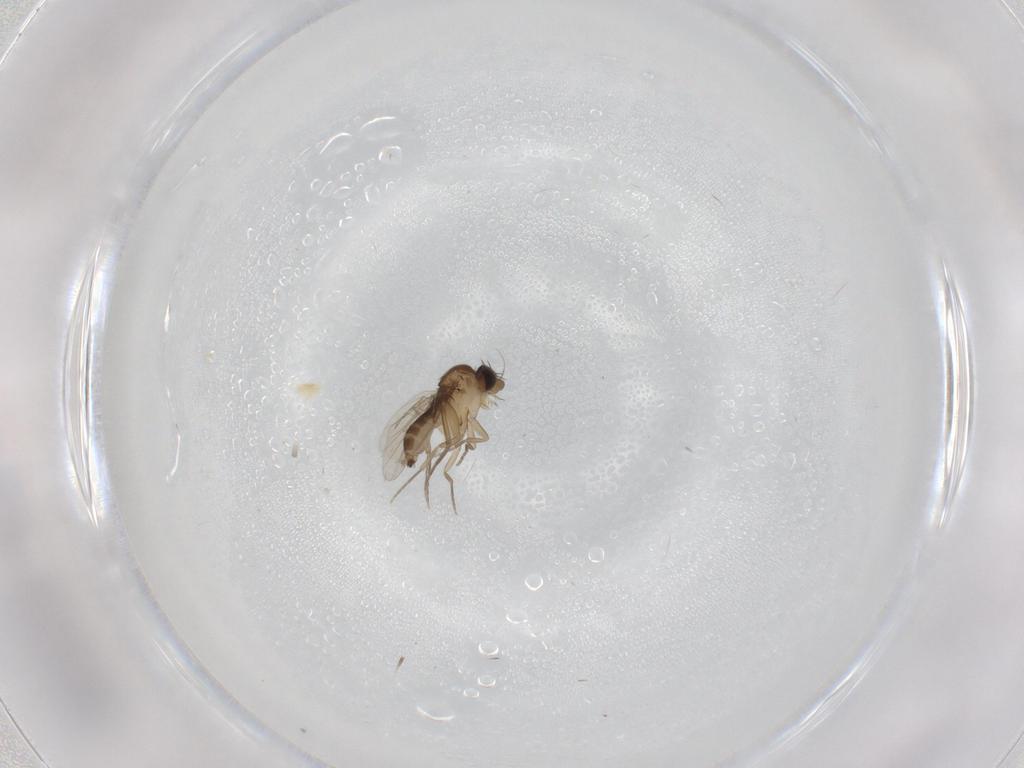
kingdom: Animalia
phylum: Arthropoda
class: Insecta
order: Diptera
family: Phoridae
